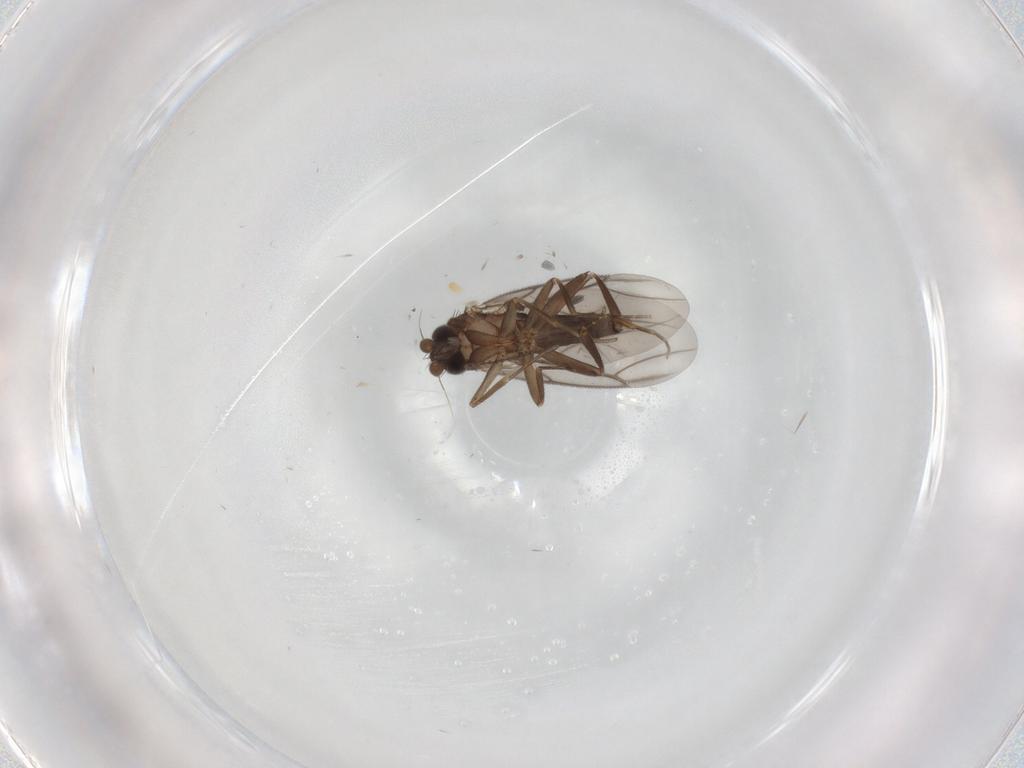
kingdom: Animalia
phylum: Arthropoda
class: Insecta
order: Diptera
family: Cecidomyiidae
